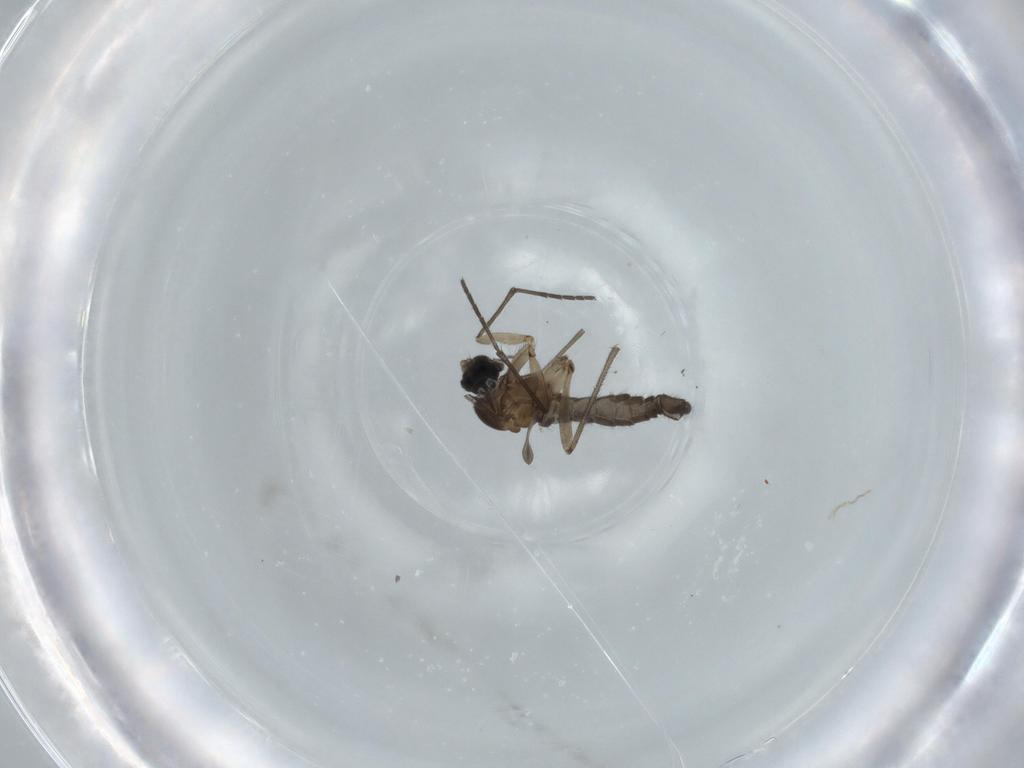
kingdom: Animalia
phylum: Arthropoda
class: Insecta
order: Diptera
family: Sciaridae
